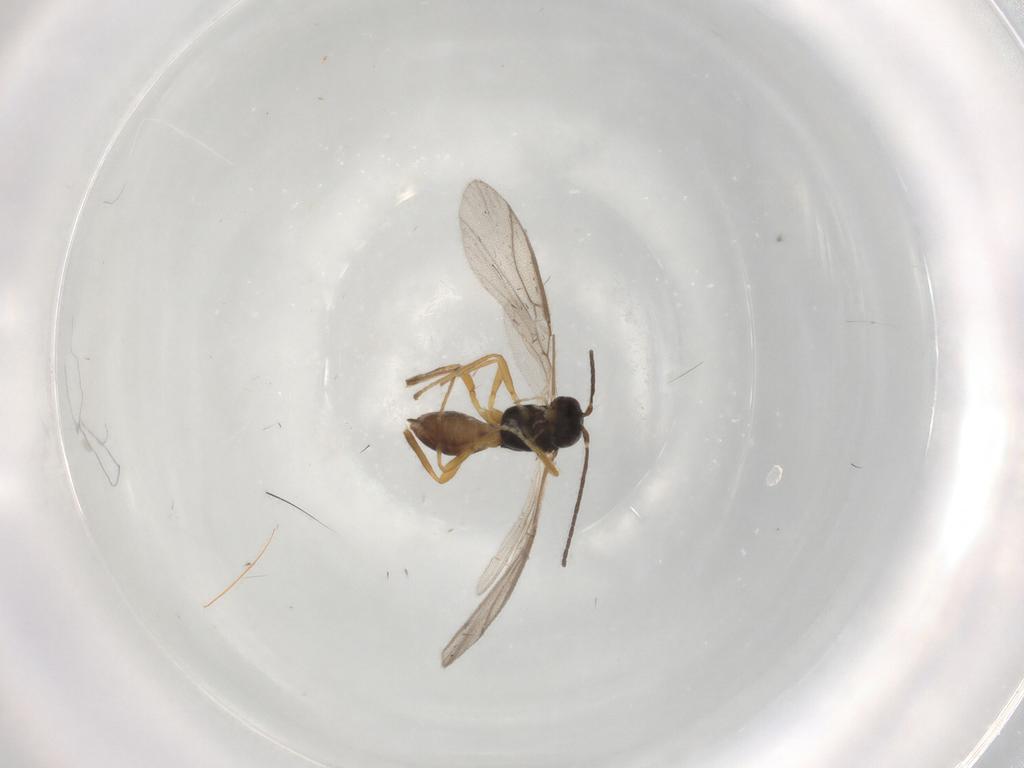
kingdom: Animalia
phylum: Arthropoda
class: Insecta
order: Hymenoptera
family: Braconidae
